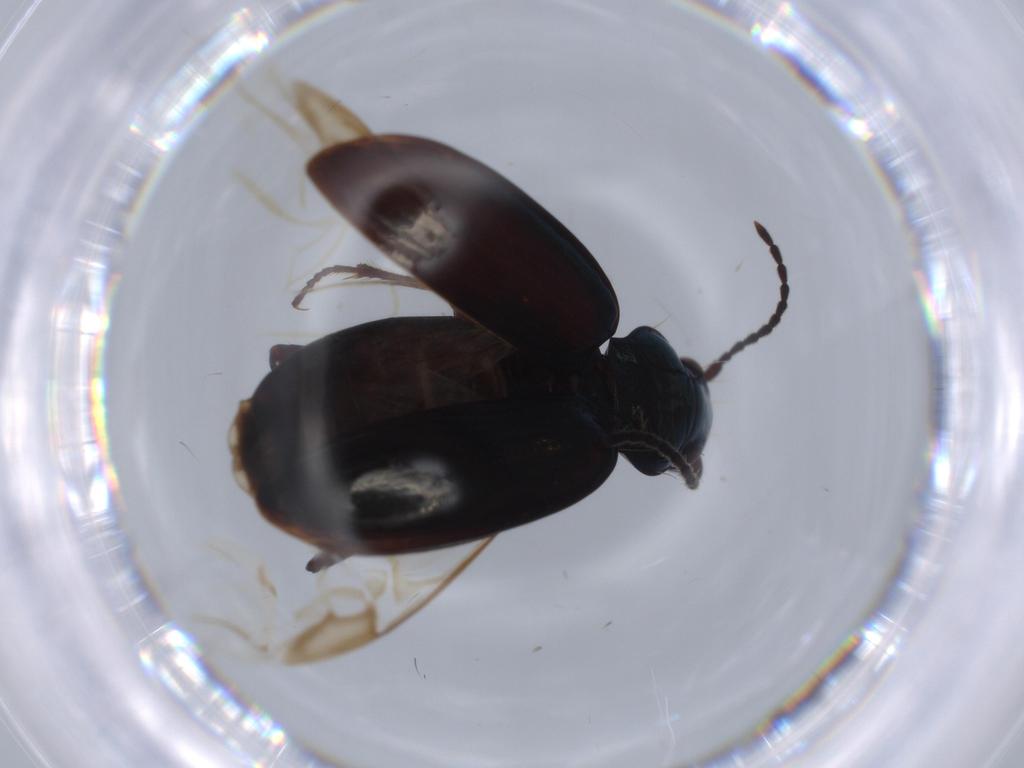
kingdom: Animalia
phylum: Arthropoda
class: Insecta
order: Coleoptera
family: Carabidae
